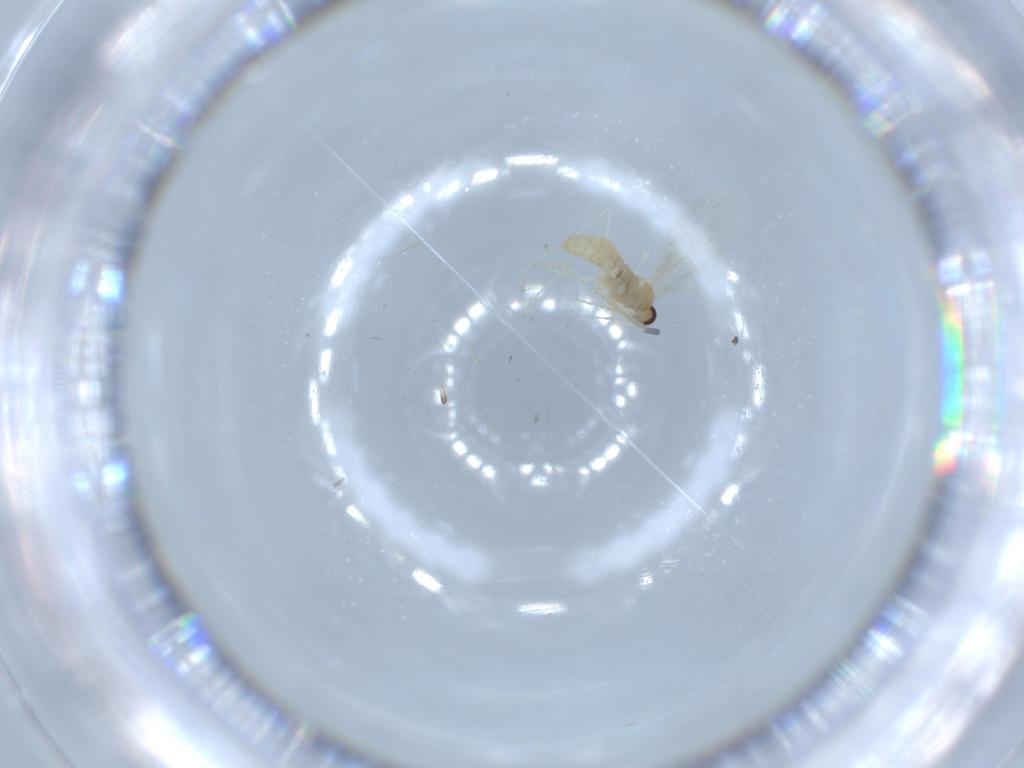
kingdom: Animalia
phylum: Arthropoda
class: Insecta
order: Diptera
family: Cecidomyiidae
